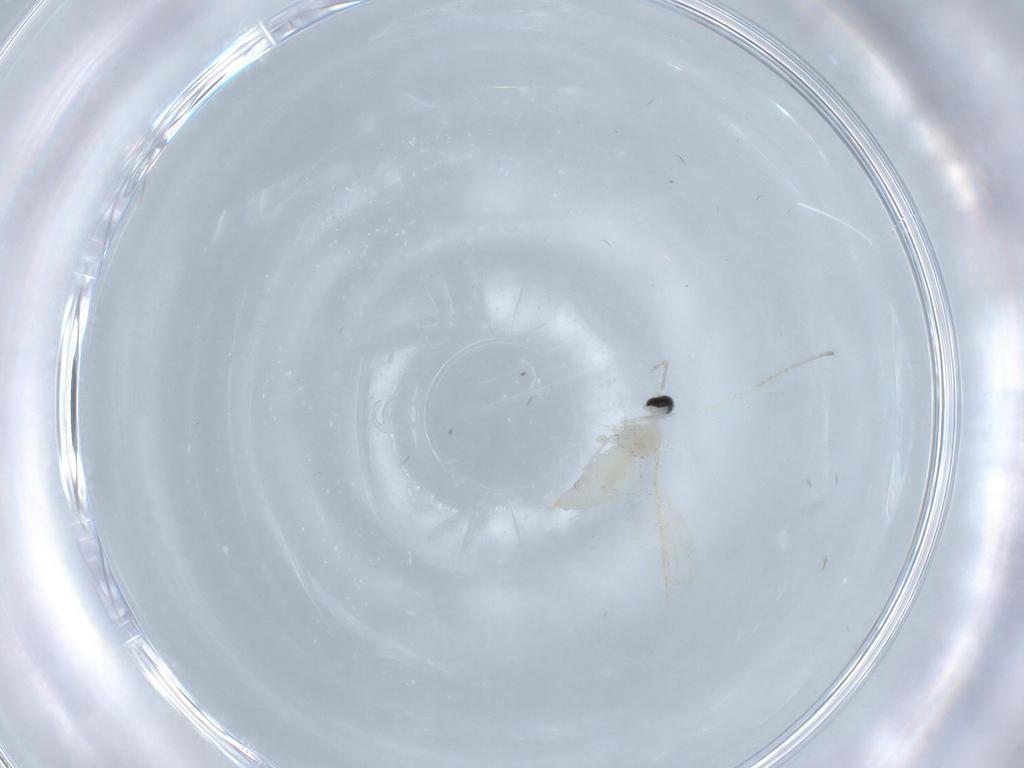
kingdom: Animalia
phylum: Arthropoda
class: Insecta
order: Diptera
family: Cecidomyiidae
